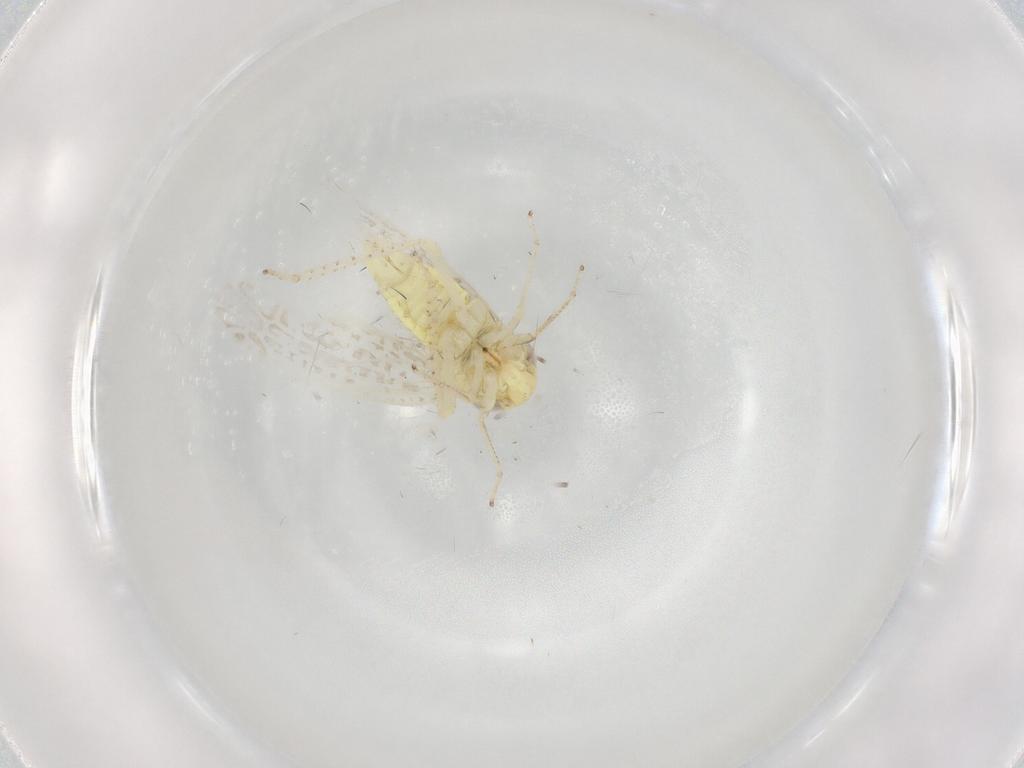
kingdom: Animalia
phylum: Arthropoda
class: Insecta
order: Hemiptera
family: Cicadellidae
